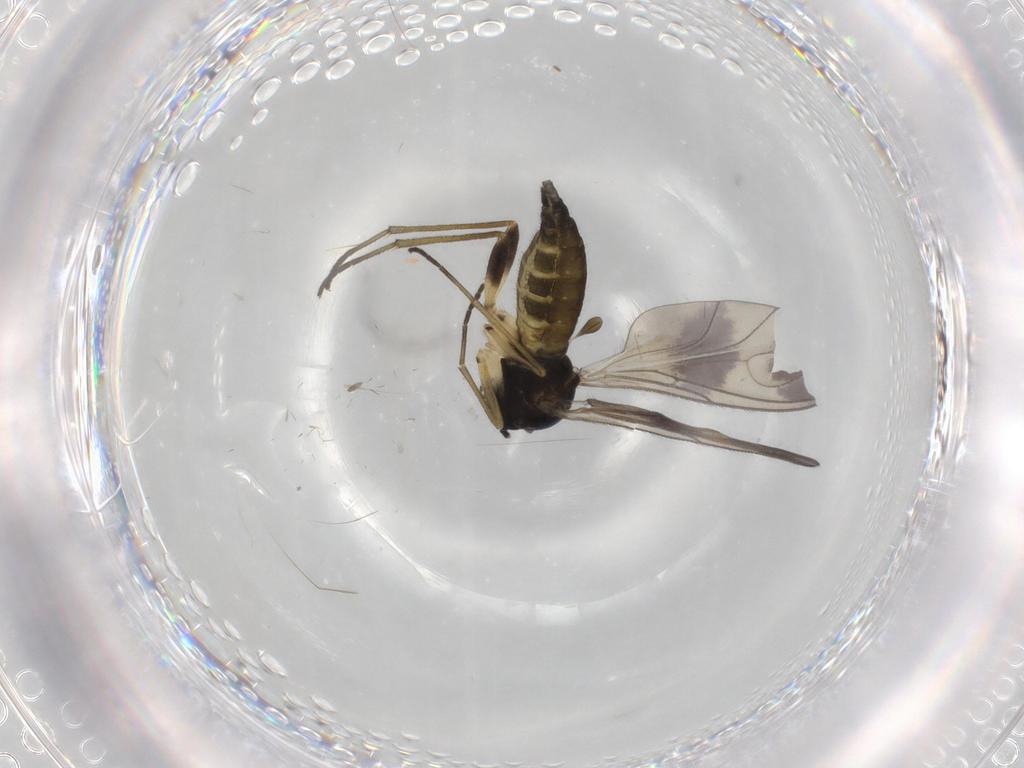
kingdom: Animalia
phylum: Arthropoda
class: Insecta
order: Diptera
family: Sciaridae
